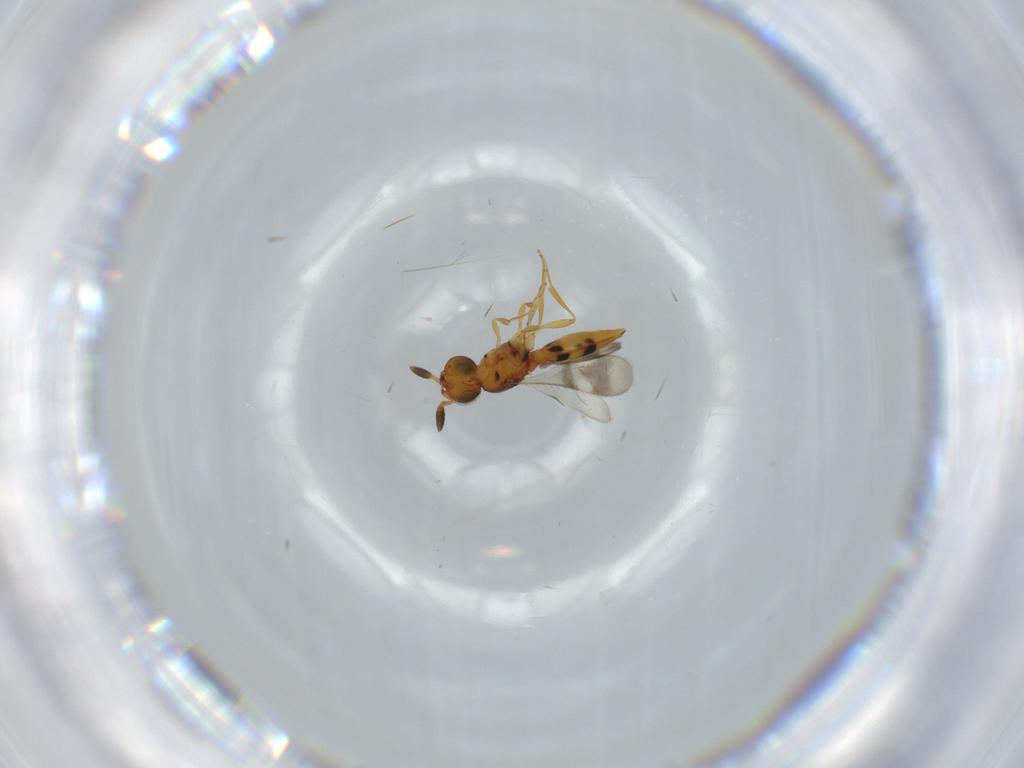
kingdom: Animalia
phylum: Arthropoda
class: Insecta
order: Hymenoptera
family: Scelionidae
